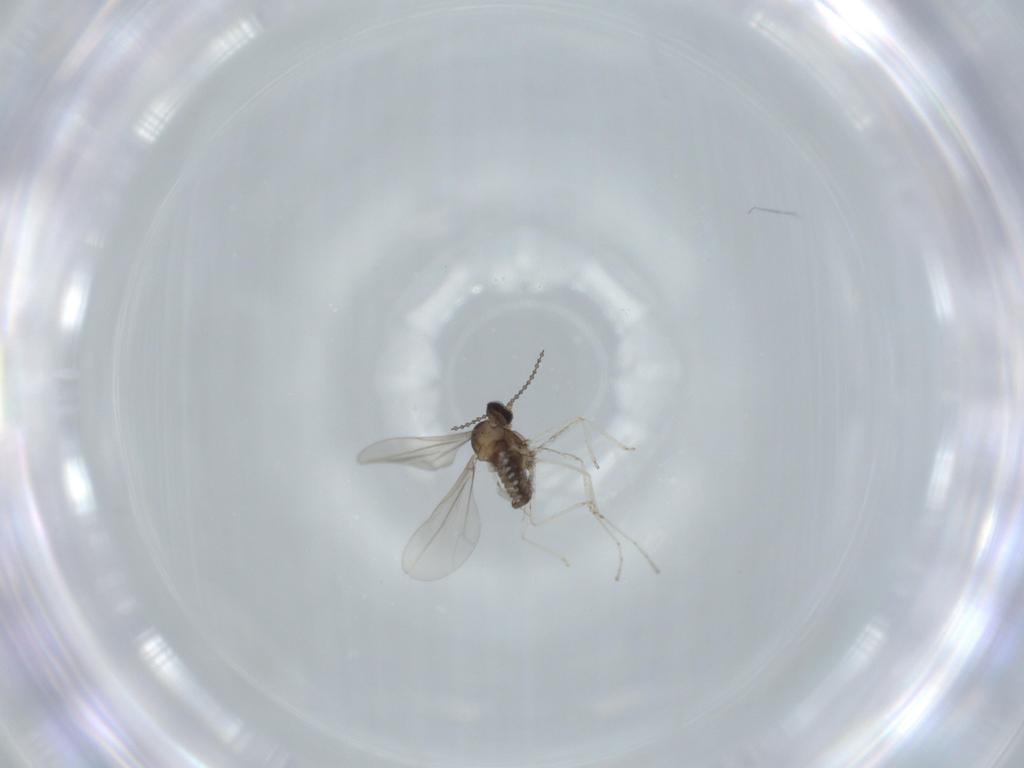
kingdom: Animalia
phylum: Arthropoda
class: Insecta
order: Diptera
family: Cecidomyiidae
